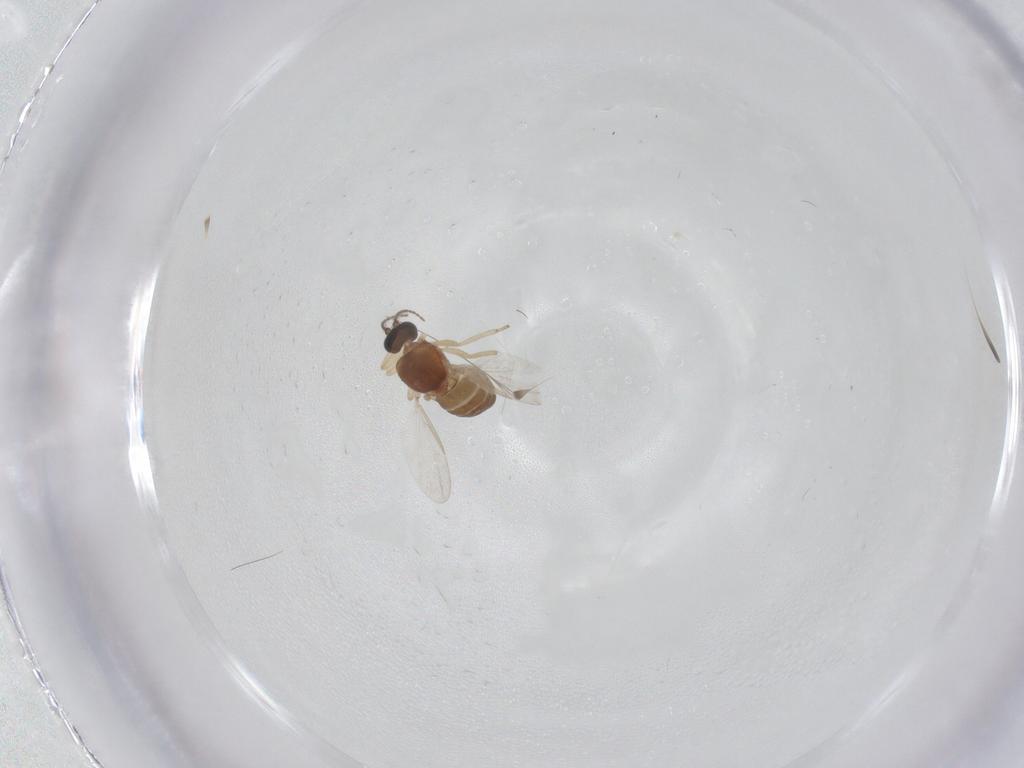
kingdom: Animalia
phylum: Arthropoda
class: Insecta
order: Diptera
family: Ceratopogonidae
